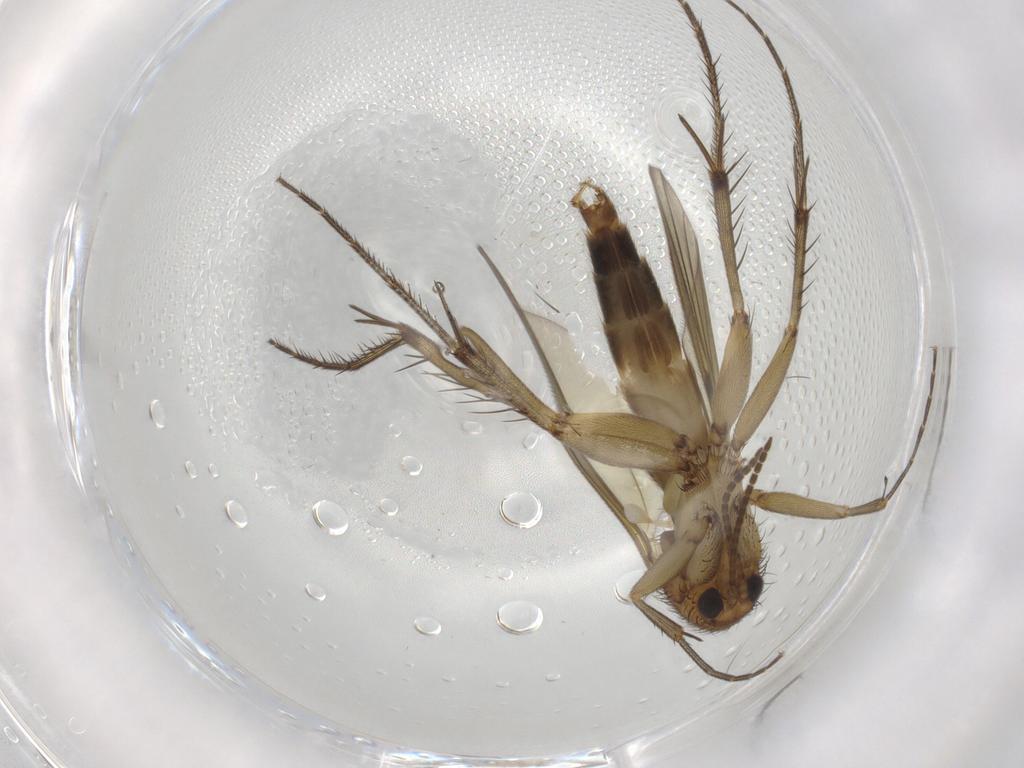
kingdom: Animalia
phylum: Arthropoda
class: Insecta
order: Diptera
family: Mycetophilidae
